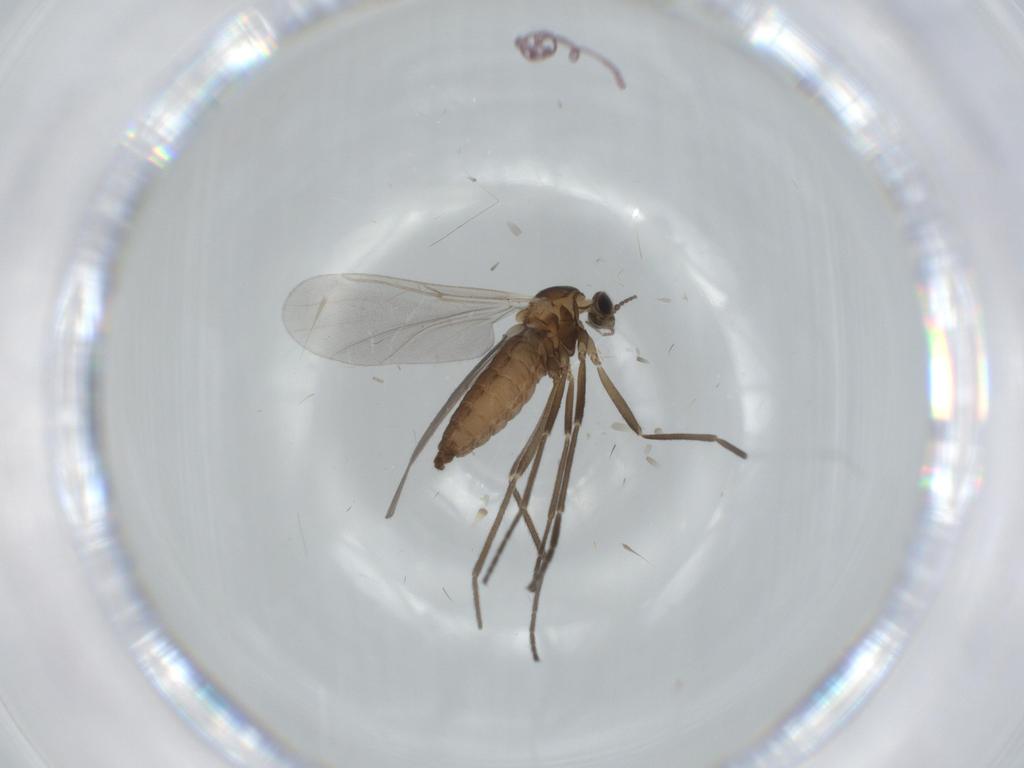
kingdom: Animalia
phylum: Arthropoda
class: Insecta
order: Diptera
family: Cecidomyiidae
